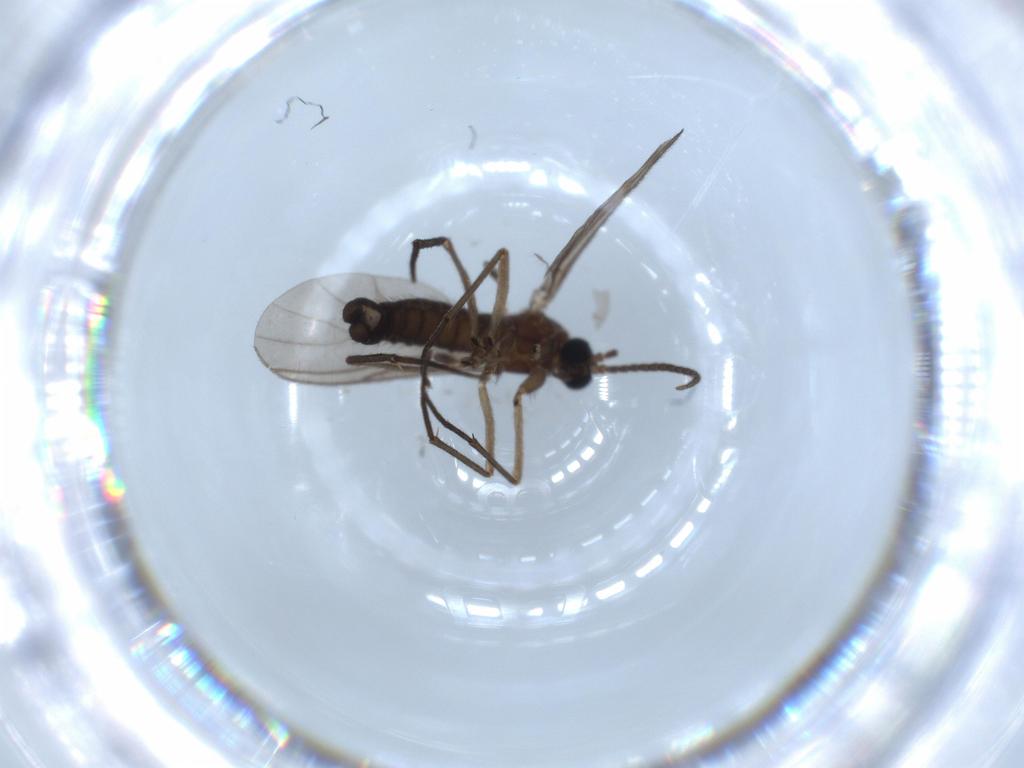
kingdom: Animalia
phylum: Arthropoda
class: Insecta
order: Diptera
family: Sciaridae
